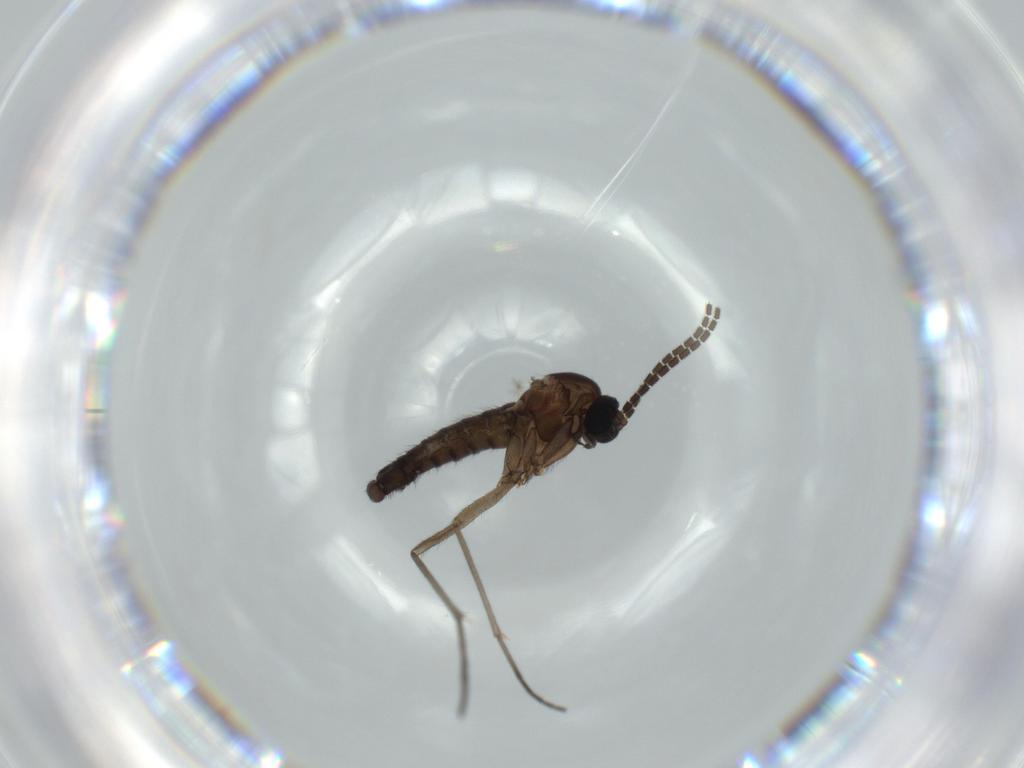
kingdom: Animalia
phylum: Arthropoda
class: Insecta
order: Diptera
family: Sciaridae
